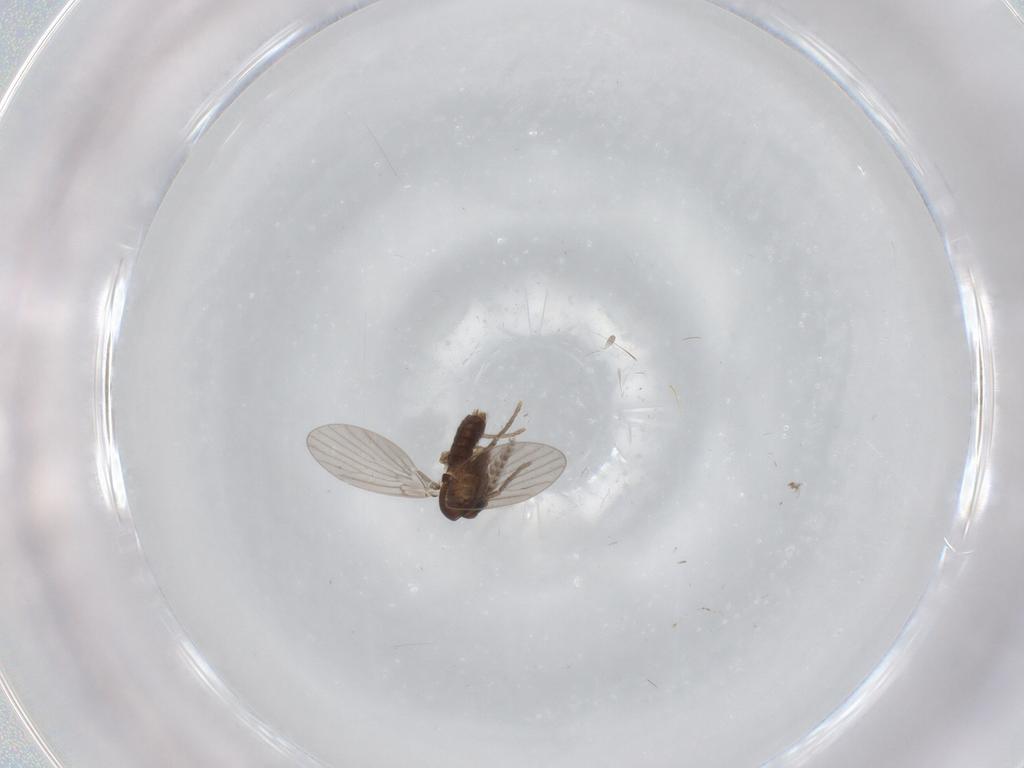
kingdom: Animalia
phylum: Arthropoda
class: Insecta
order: Diptera
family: Psychodidae
